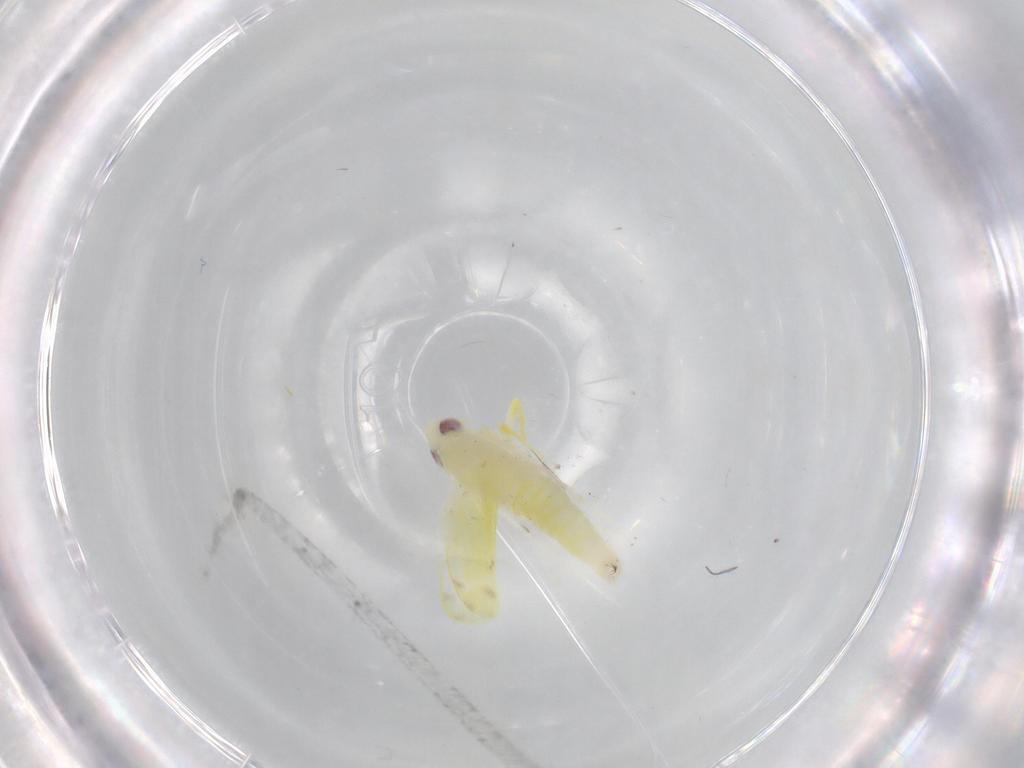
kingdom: Animalia
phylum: Arthropoda
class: Insecta
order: Hemiptera
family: Cicadellidae
